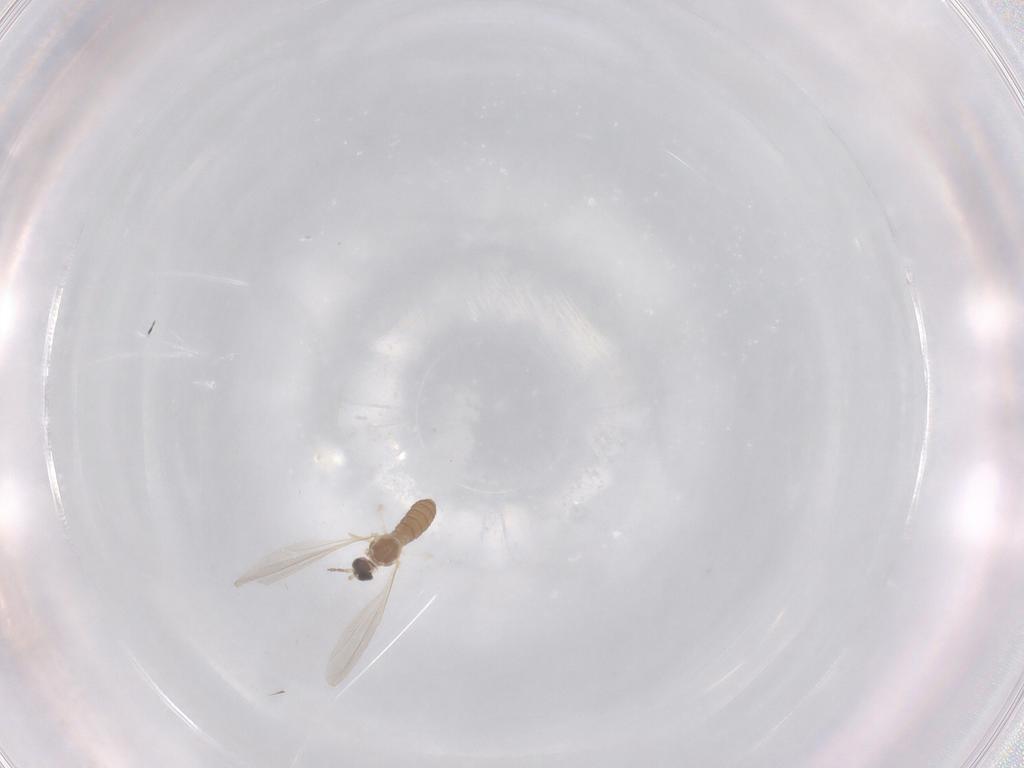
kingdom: Animalia
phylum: Arthropoda
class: Insecta
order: Diptera
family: Cecidomyiidae
